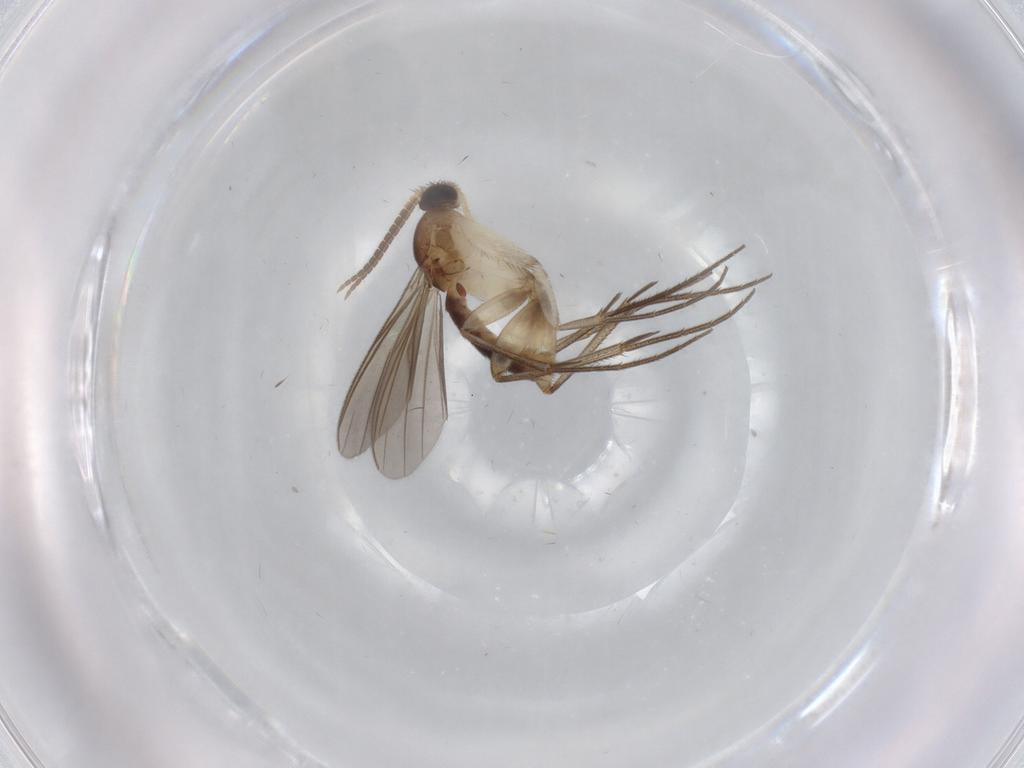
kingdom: Animalia
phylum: Arthropoda
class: Insecta
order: Diptera
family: Mycetophilidae
